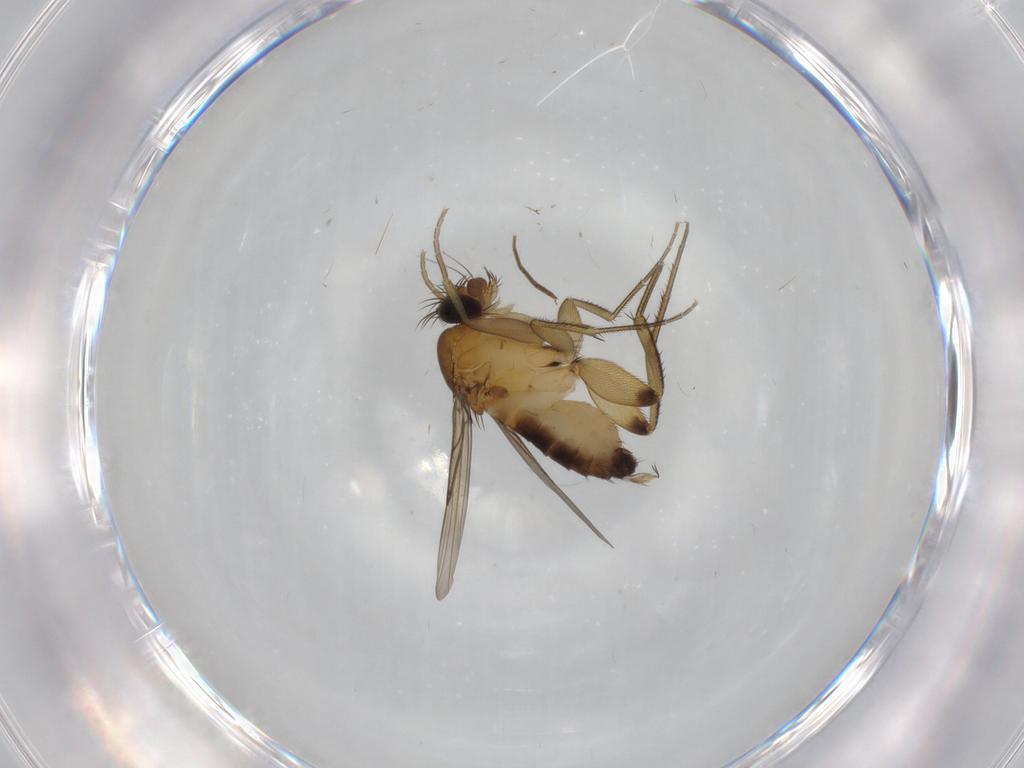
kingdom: Animalia
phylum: Arthropoda
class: Insecta
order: Diptera
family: Phoridae
